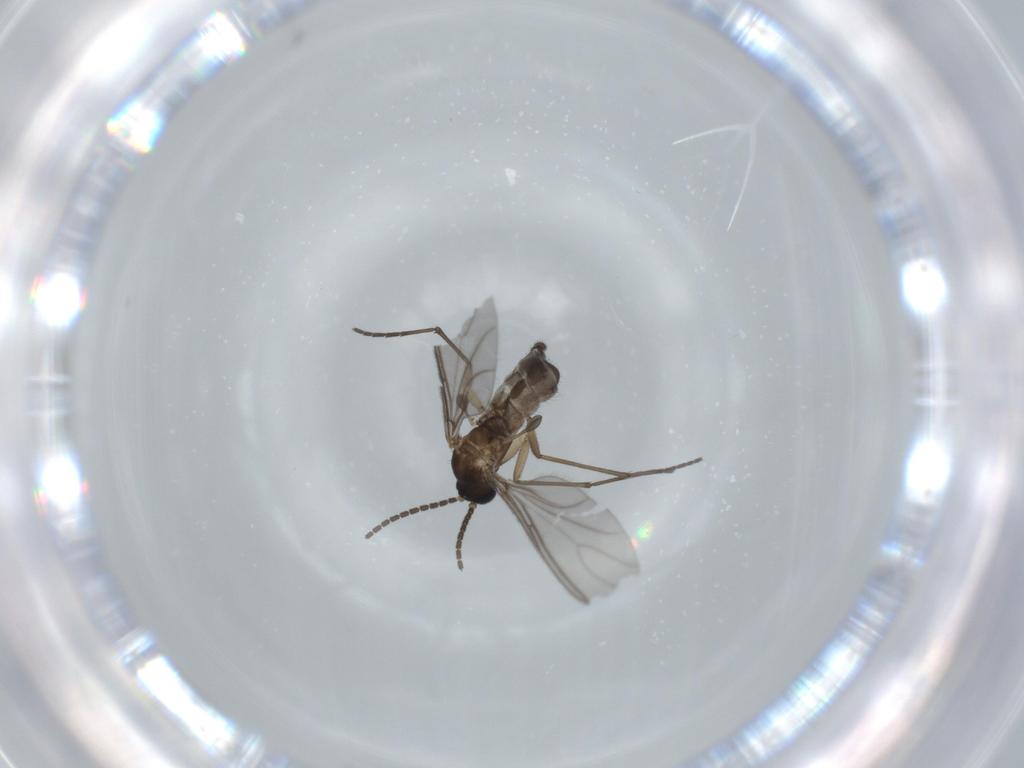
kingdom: Animalia
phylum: Arthropoda
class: Insecta
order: Diptera
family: Sciaridae
